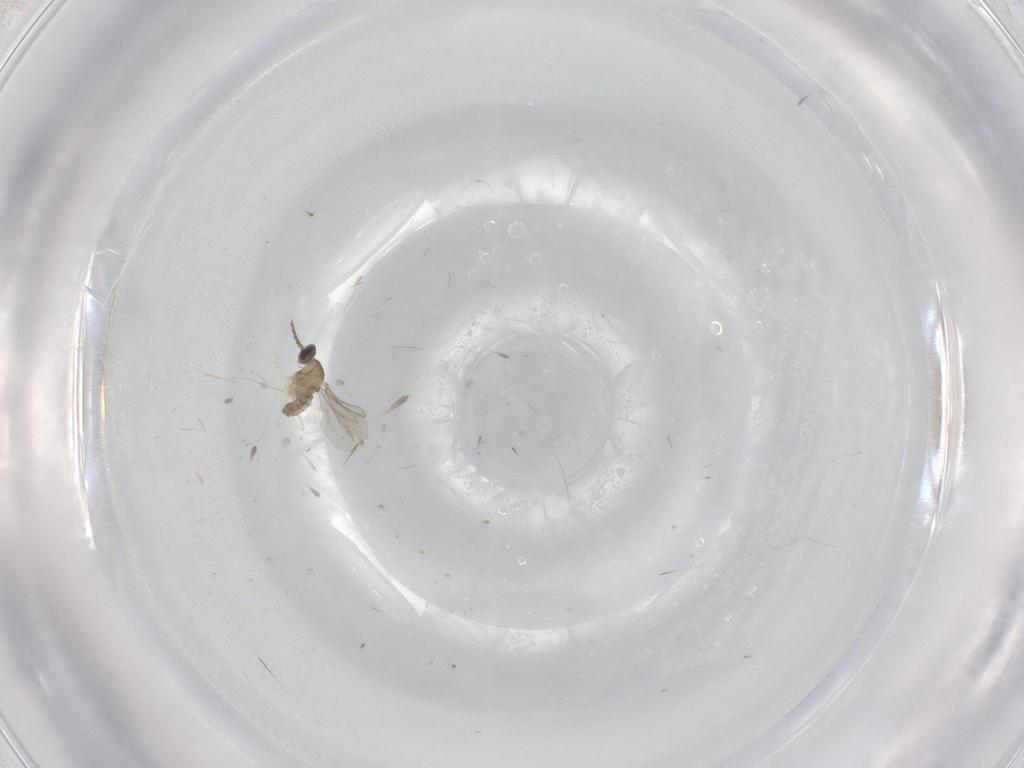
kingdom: Animalia
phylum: Arthropoda
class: Insecta
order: Diptera
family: Cecidomyiidae
